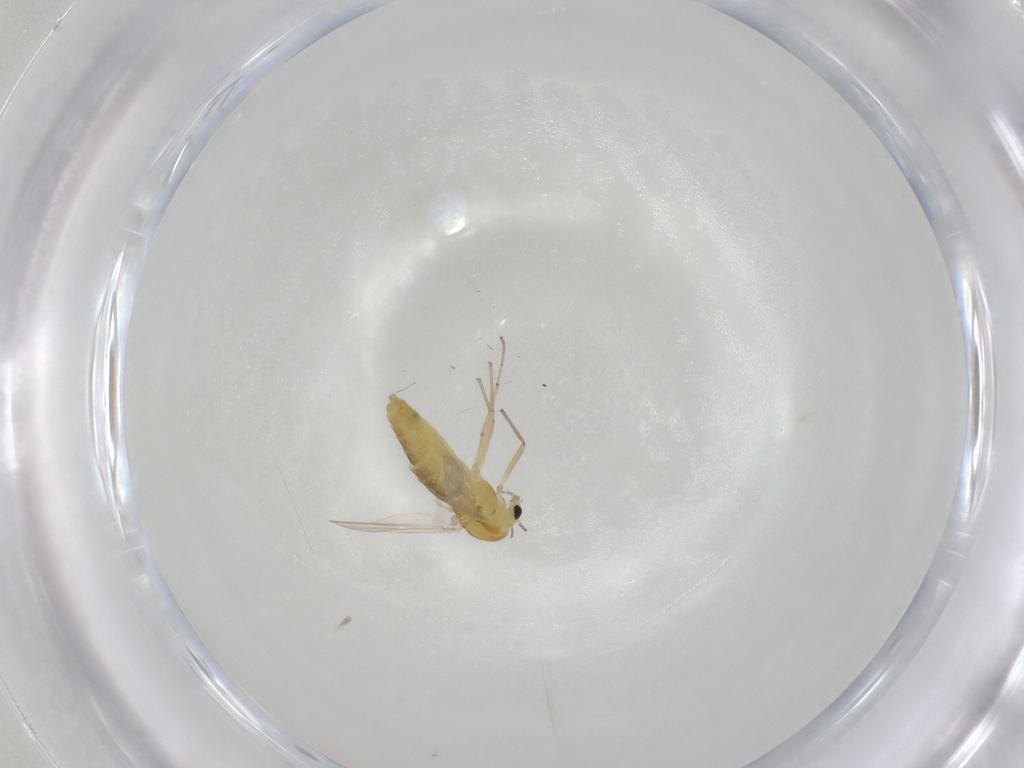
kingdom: Animalia
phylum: Arthropoda
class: Insecta
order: Diptera
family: Chironomidae
